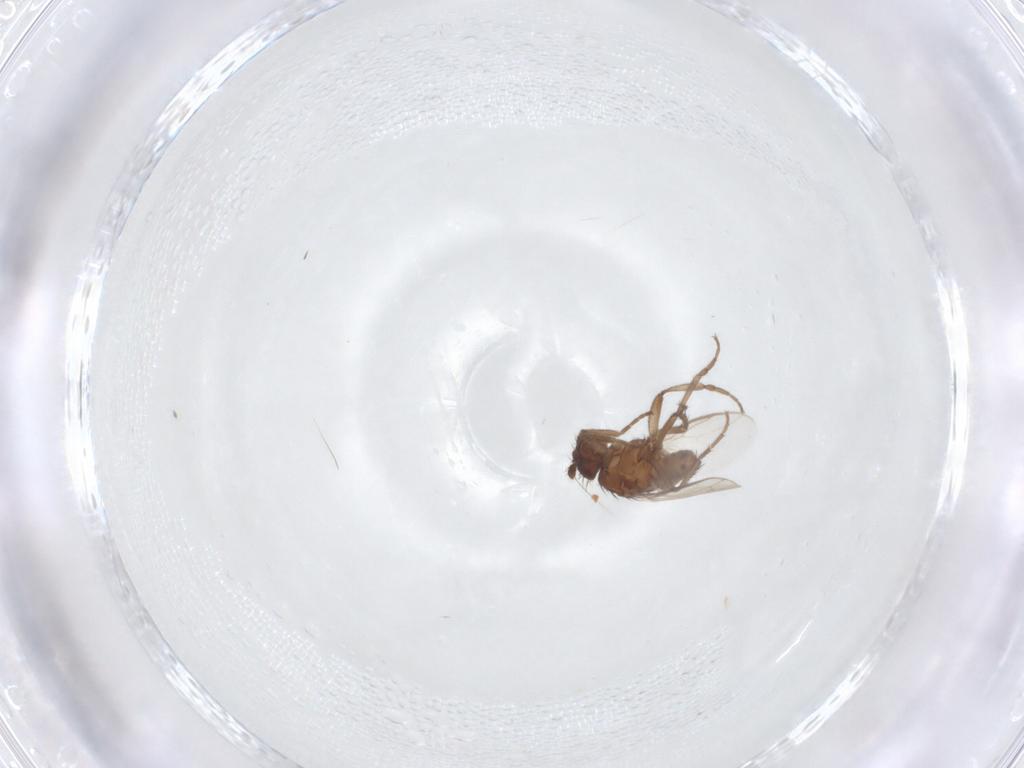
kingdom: Animalia
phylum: Arthropoda
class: Insecta
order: Diptera
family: Sphaeroceridae
